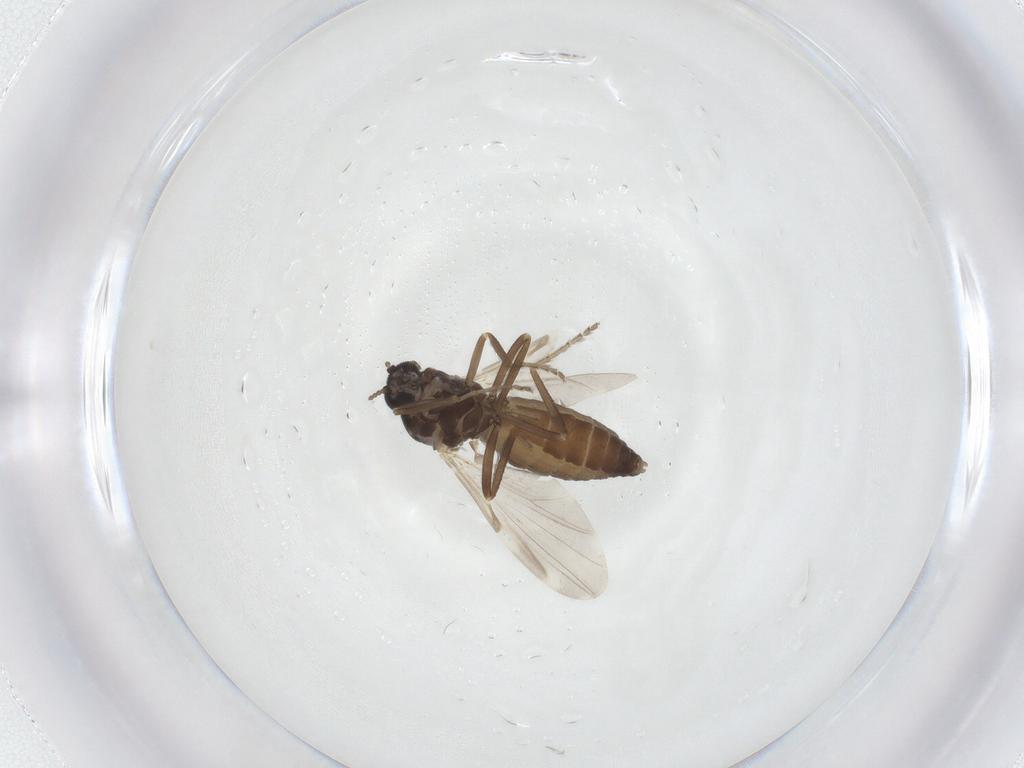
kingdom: Animalia
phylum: Arthropoda
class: Insecta
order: Diptera
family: Ceratopogonidae
